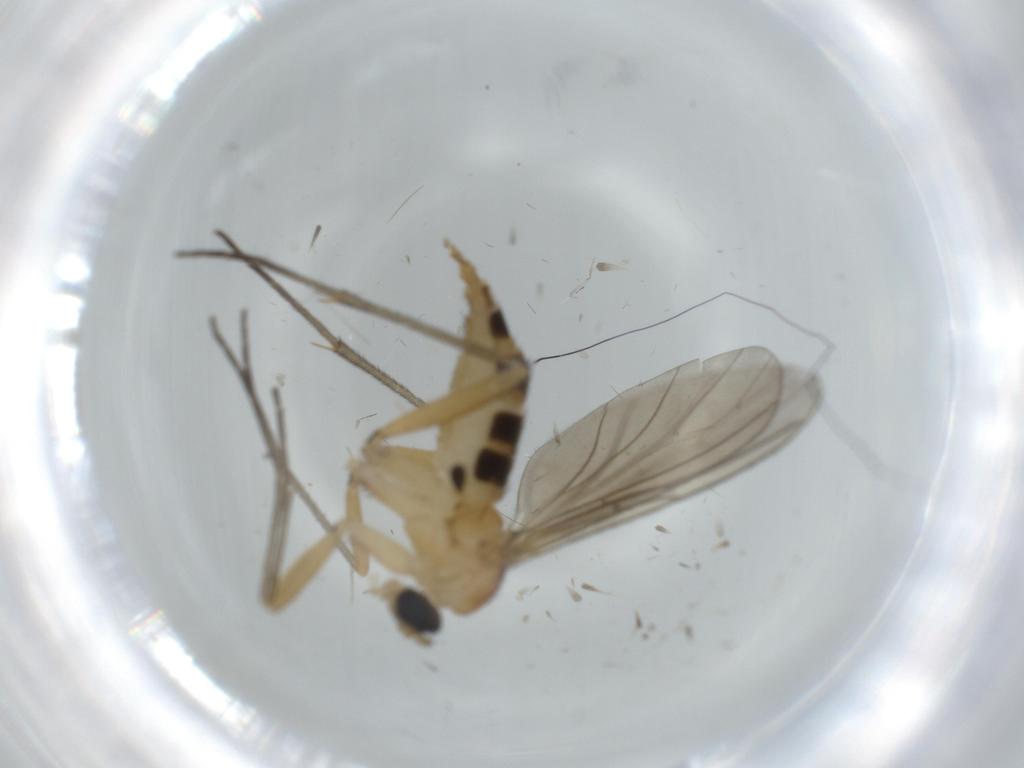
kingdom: Animalia
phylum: Arthropoda
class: Insecta
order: Diptera
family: Sciaridae
